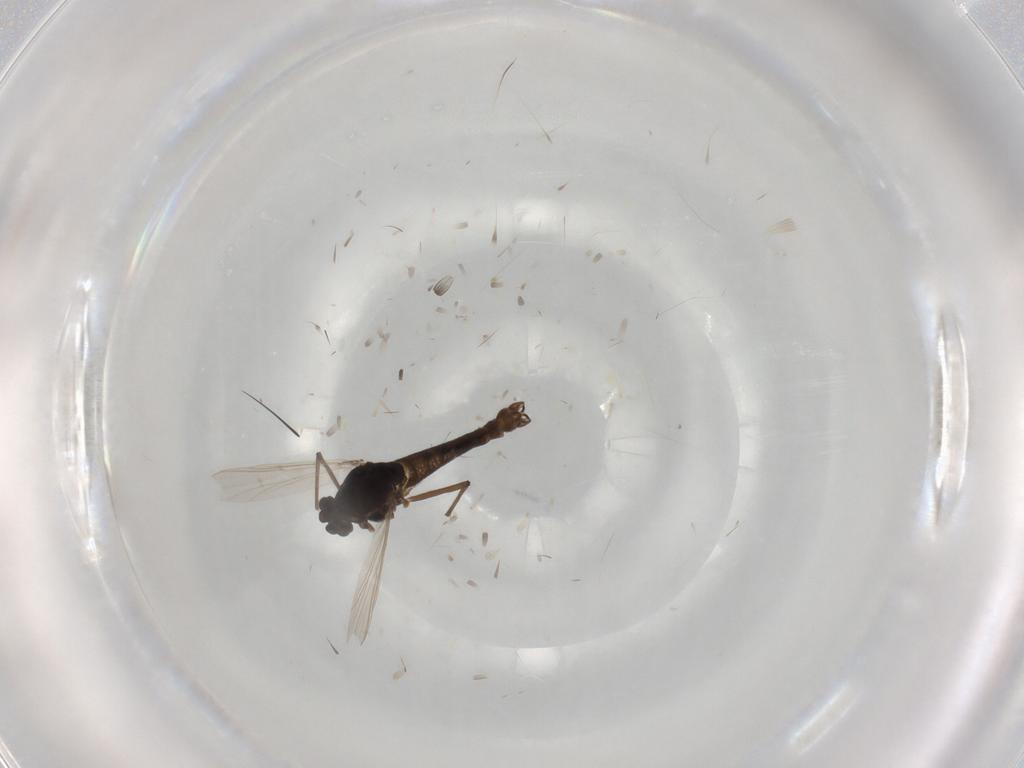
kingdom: Animalia
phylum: Arthropoda
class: Insecta
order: Diptera
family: Chironomidae
